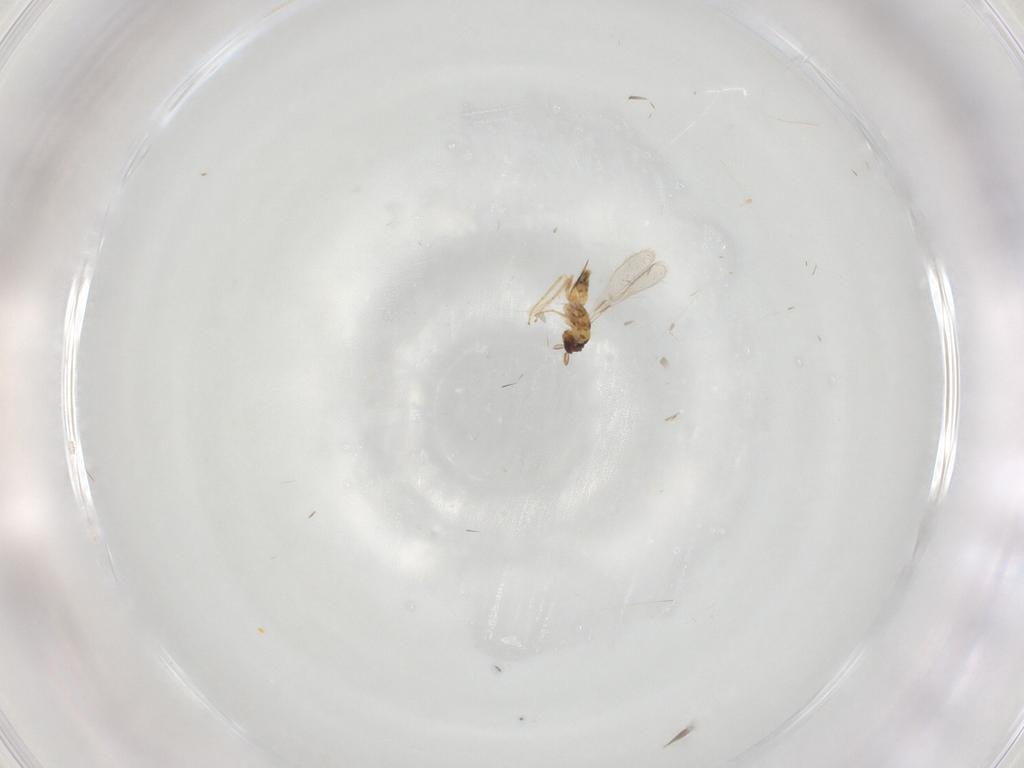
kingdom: Animalia
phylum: Arthropoda
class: Insecta
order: Hymenoptera
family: Mymaridae
